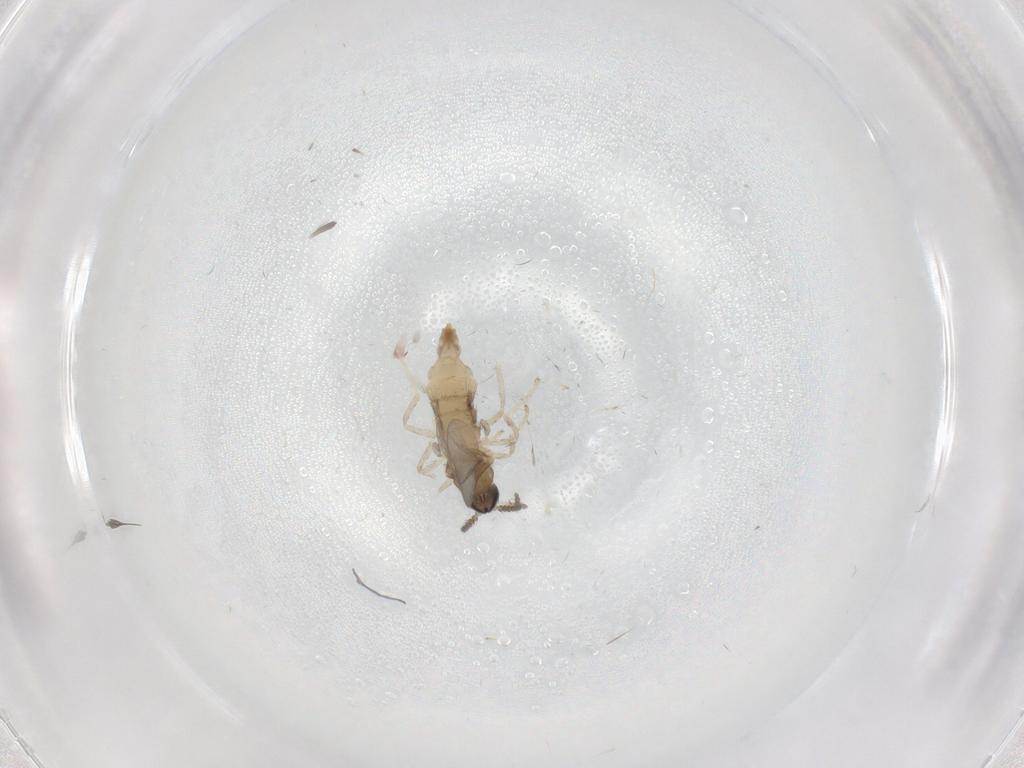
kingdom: Animalia
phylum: Arthropoda
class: Insecta
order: Diptera
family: Cecidomyiidae
